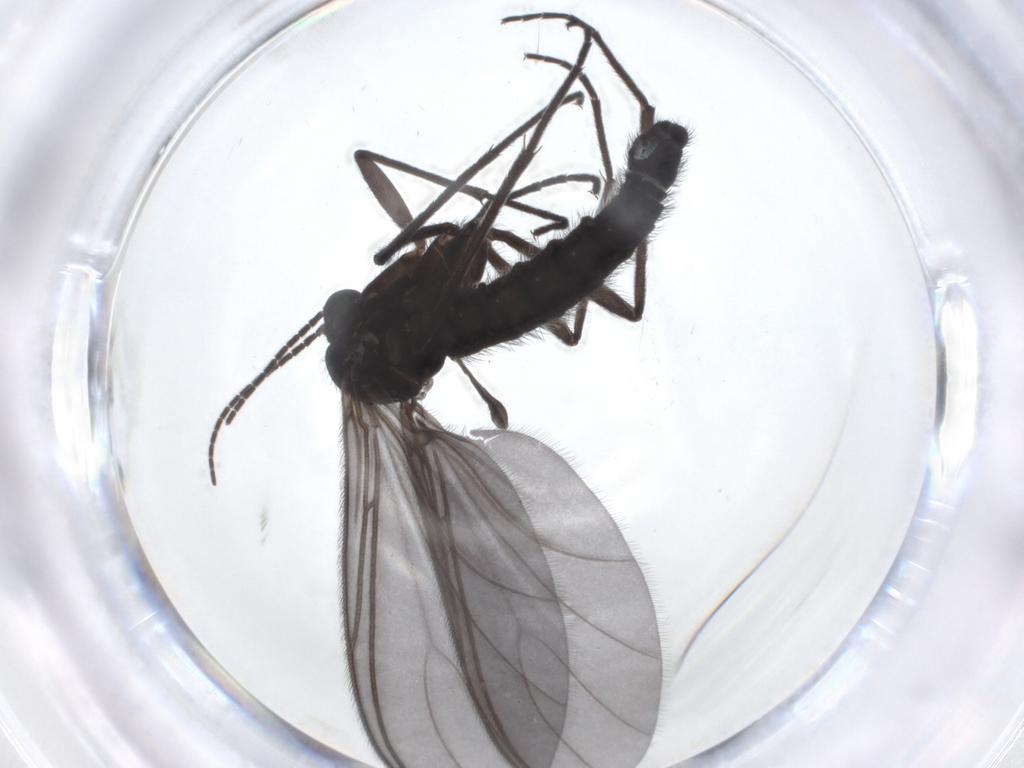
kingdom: Animalia
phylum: Arthropoda
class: Insecta
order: Diptera
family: Sciaridae
